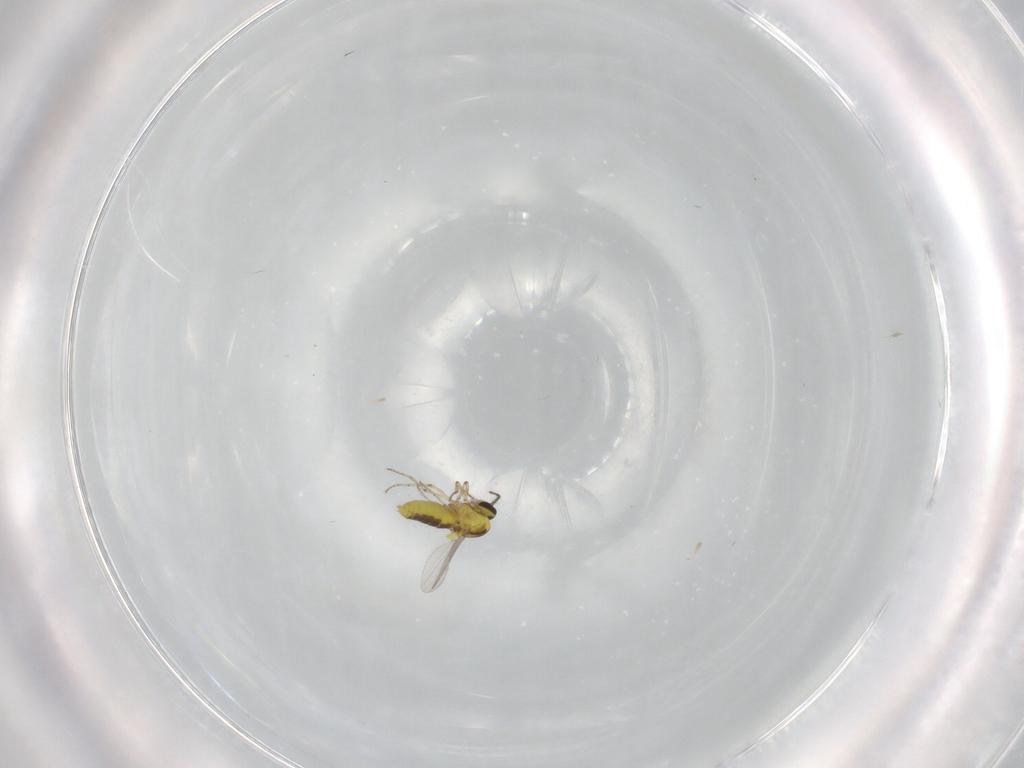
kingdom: Animalia
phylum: Arthropoda
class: Insecta
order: Diptera
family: Ceratopogonidae
